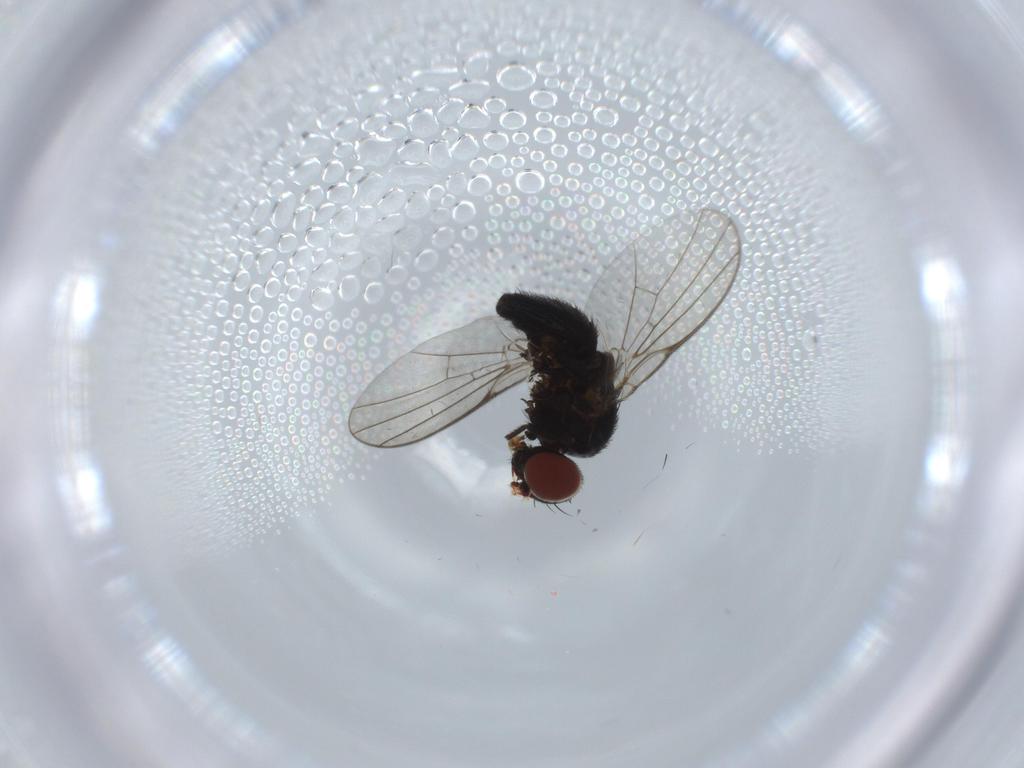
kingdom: Animalia
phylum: Arthropoda
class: Insecta
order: Diptera
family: Agromyzidae
